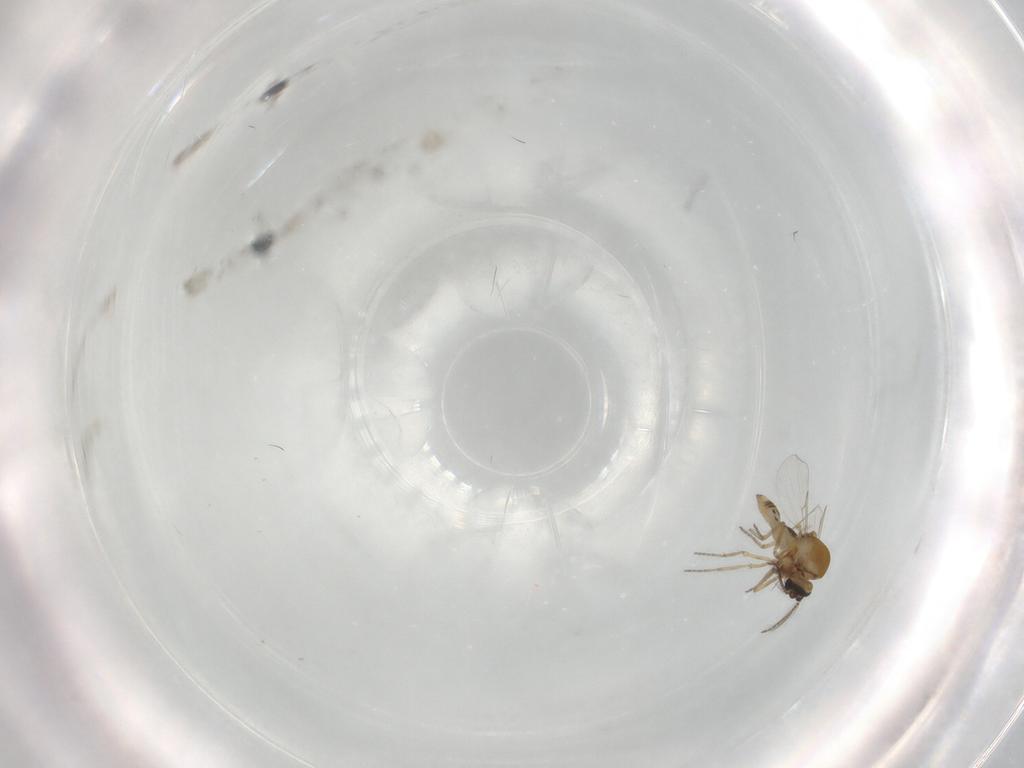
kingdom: Animalia
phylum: Arthropoda
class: Insecta
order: Diptera
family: Ceratopogonidae
